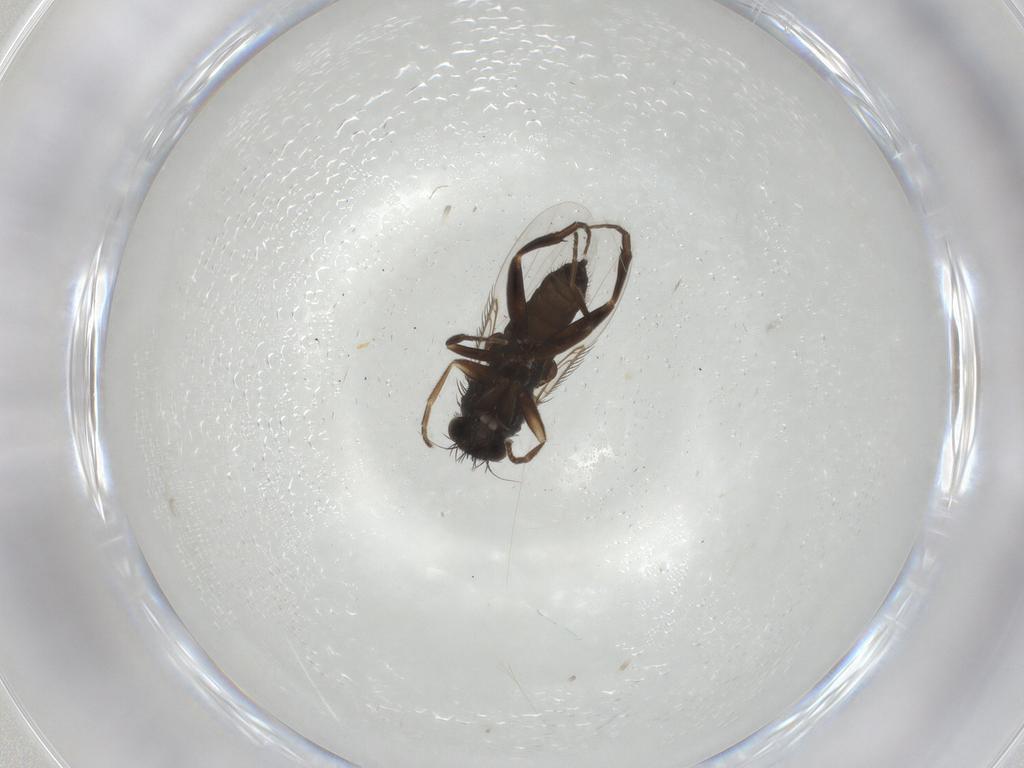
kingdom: Animalia
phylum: Arthropoda
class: Insecta
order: Diptera
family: Phoridae
